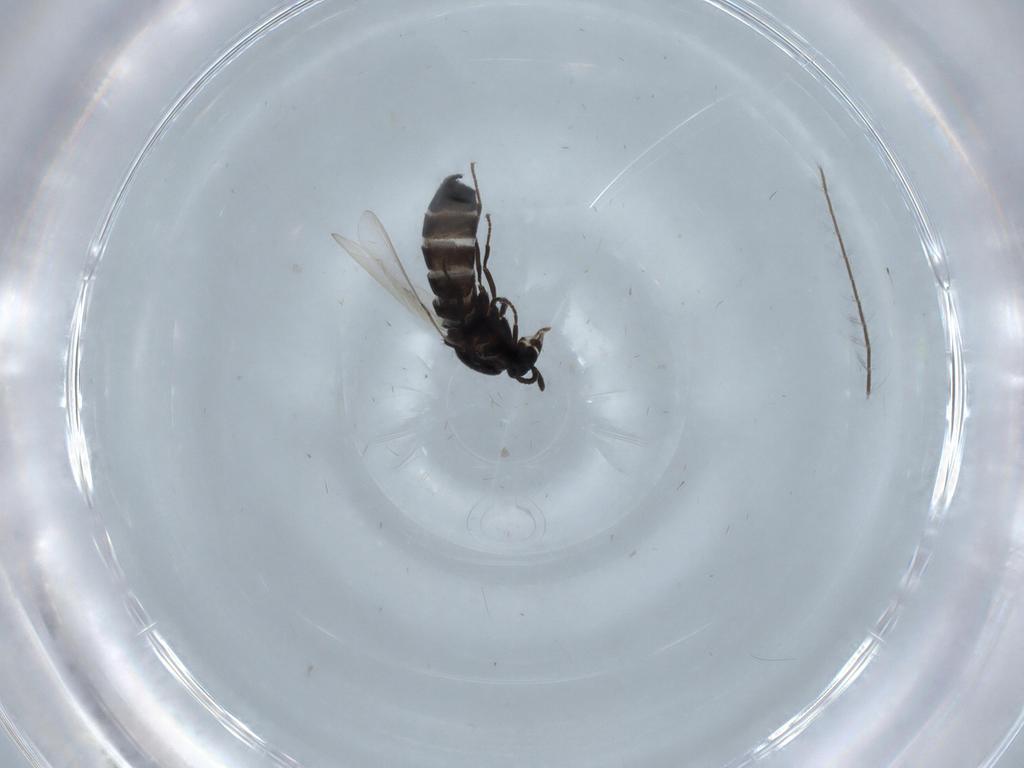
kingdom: Animalia
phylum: Arthropoda
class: Insecta
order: Diptera
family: Scatopsidae
